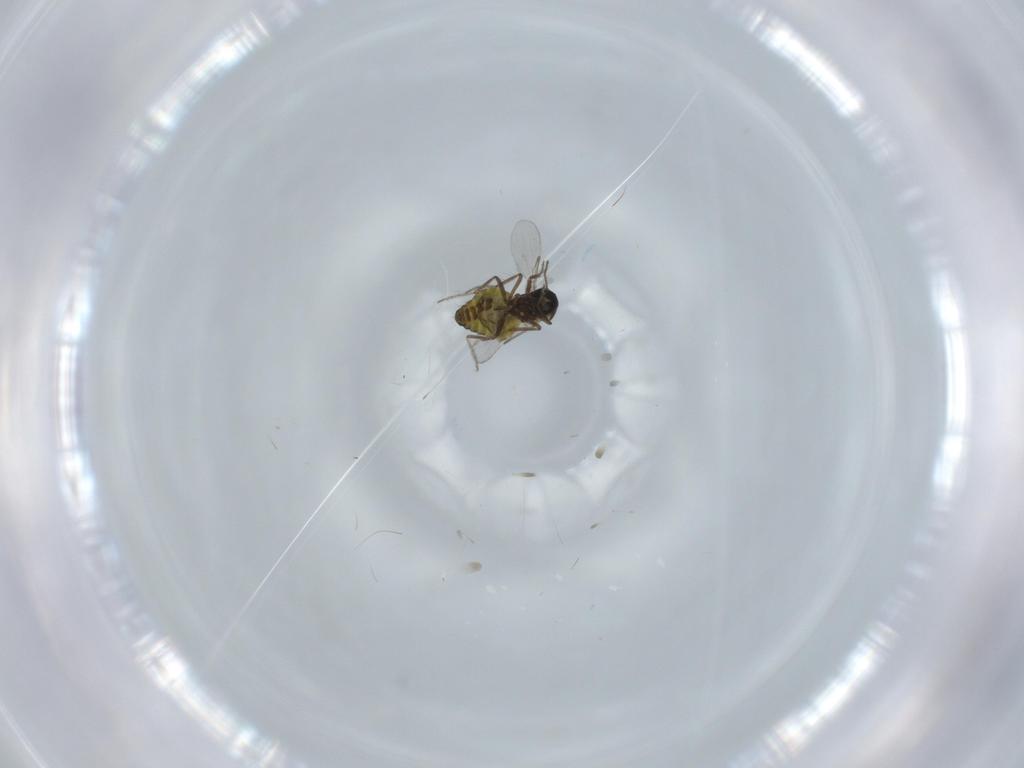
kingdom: Animalia
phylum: Arthropoda
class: Insecta
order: Diptera
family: Ceratopogonidae
